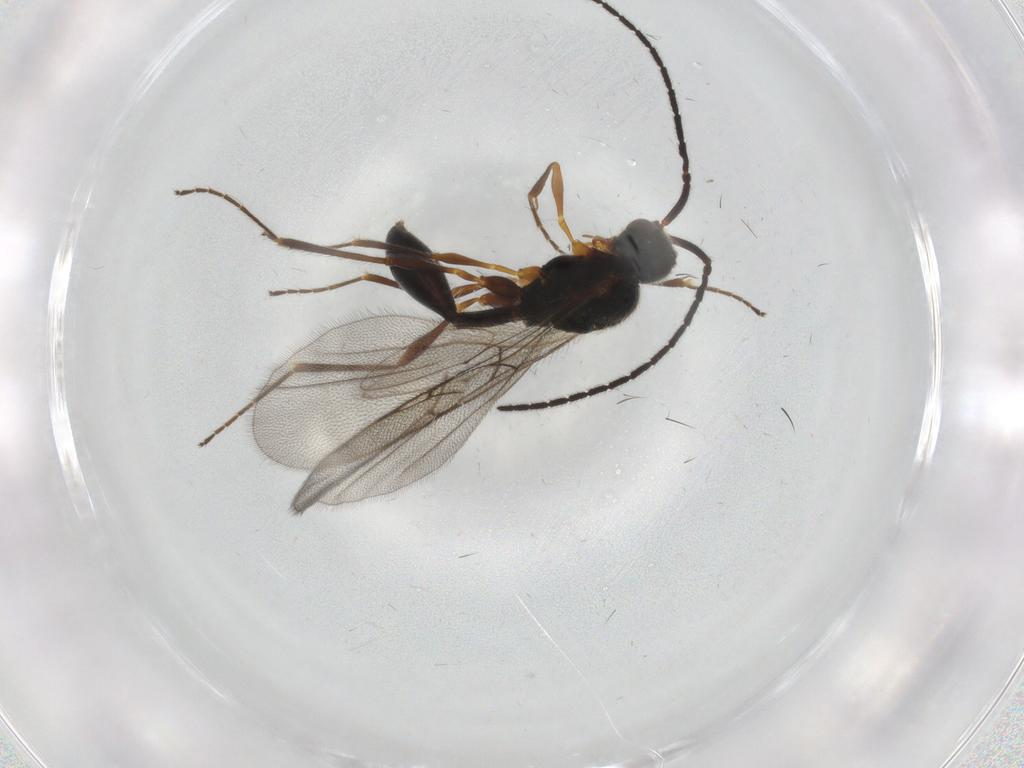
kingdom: Animalia
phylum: Arthropoda
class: Insecta
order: Hymenoptera
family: Diapriidae
